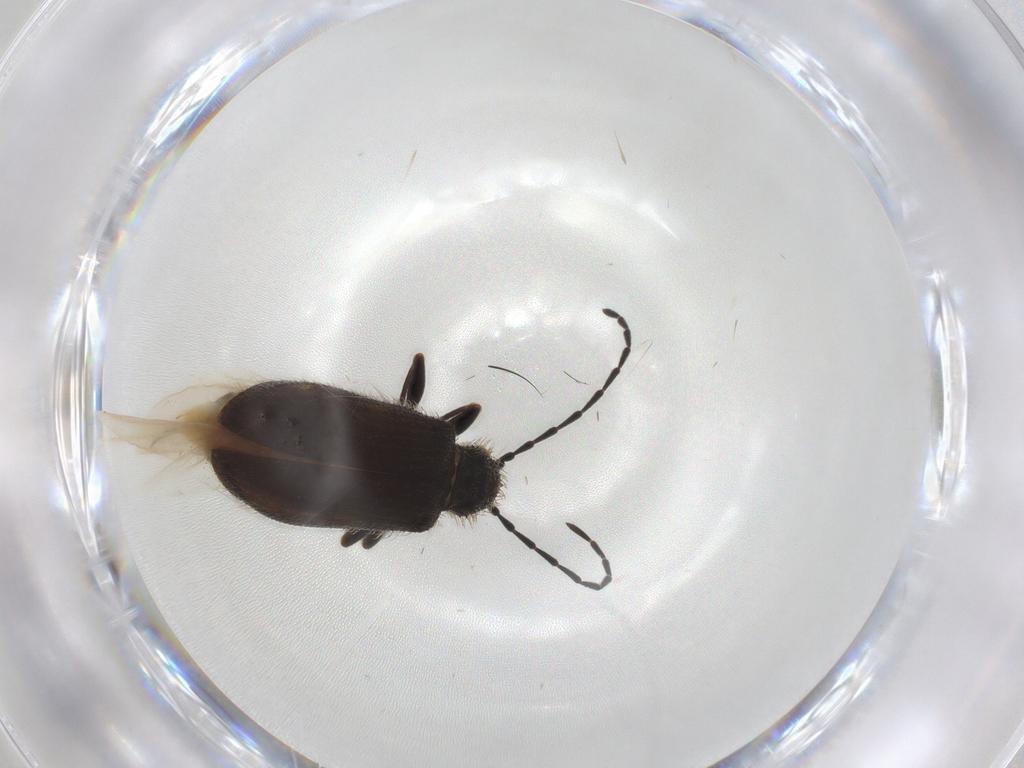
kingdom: Animalia
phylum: Arthropoda
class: Insecta
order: Coleoptera
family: Ptinidae
